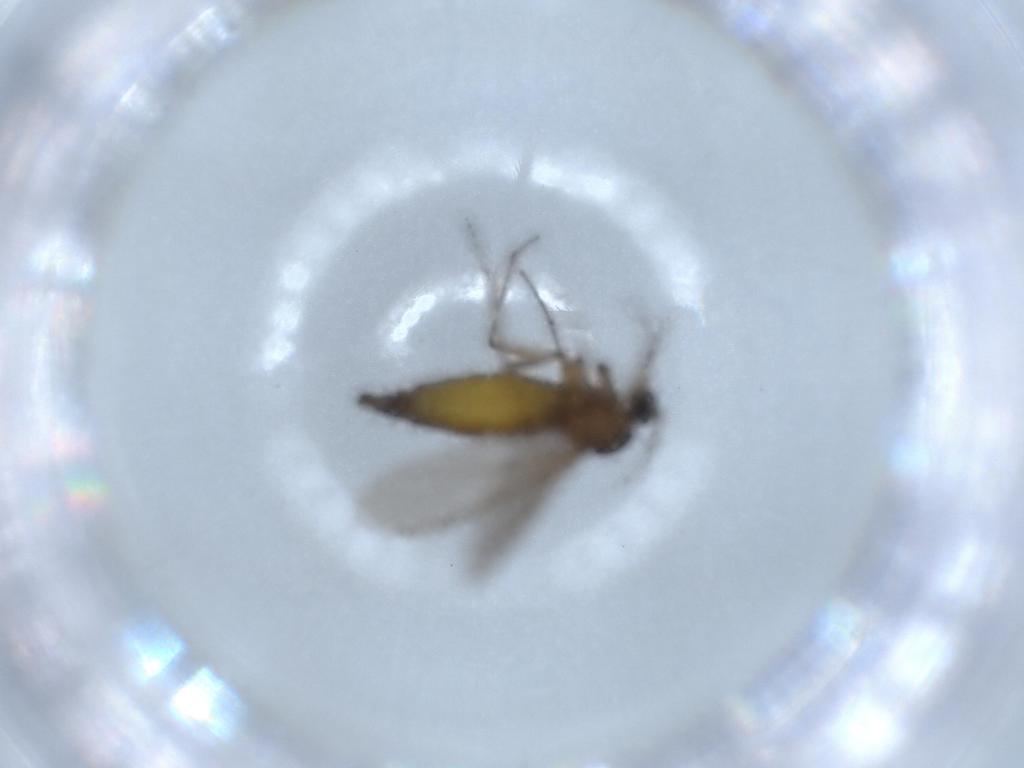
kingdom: Animalia
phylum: Arthropoda
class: Insecta
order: Diptera
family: Sciaridae
